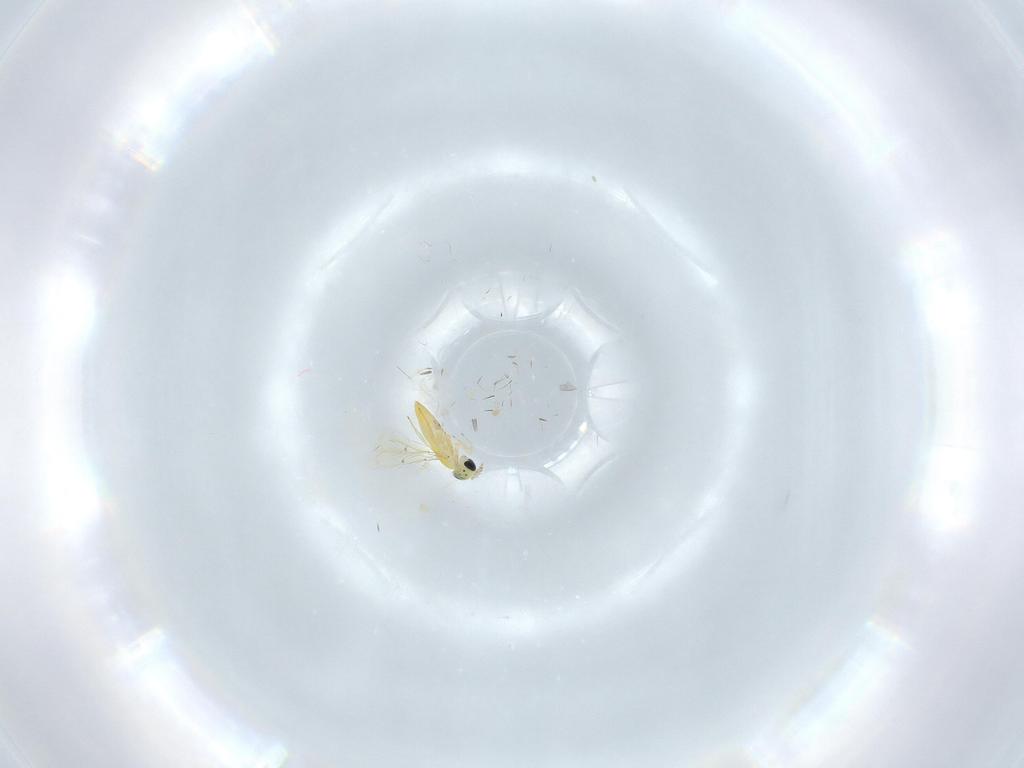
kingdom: Animalia
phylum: Arthropoda
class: Insecta
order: Hymenoptera
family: Trichogrammatidae
